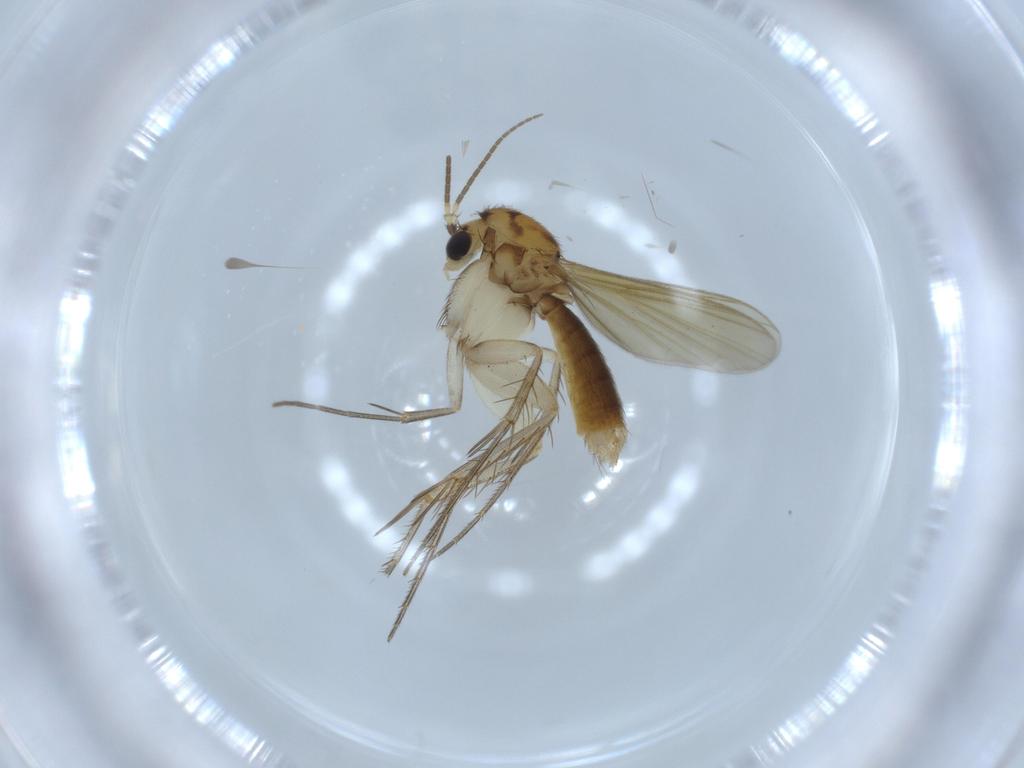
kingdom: Animalia
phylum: Arthropoda
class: Insecta
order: Diptera
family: Mycetophilidae
